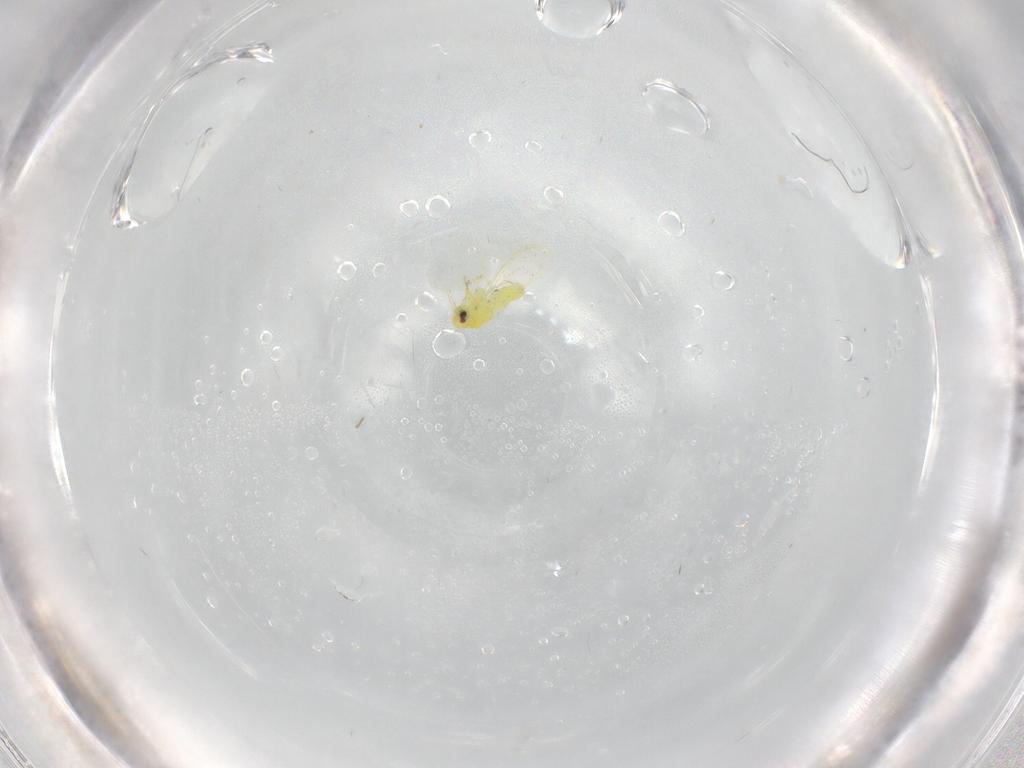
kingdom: Animalia
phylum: Arthropoda
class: Insecta
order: Hemiptera
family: Aleyrodidae
